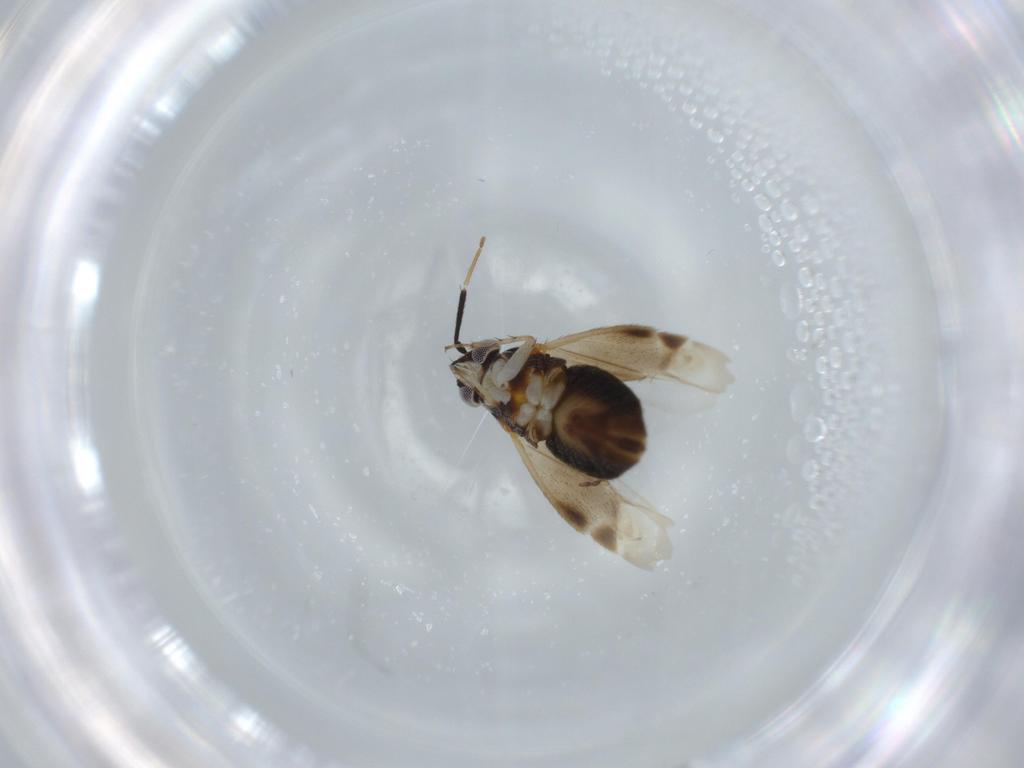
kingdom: Animalia
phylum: Arthropoda
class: Insecta
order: Hemiptera
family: Miridae
